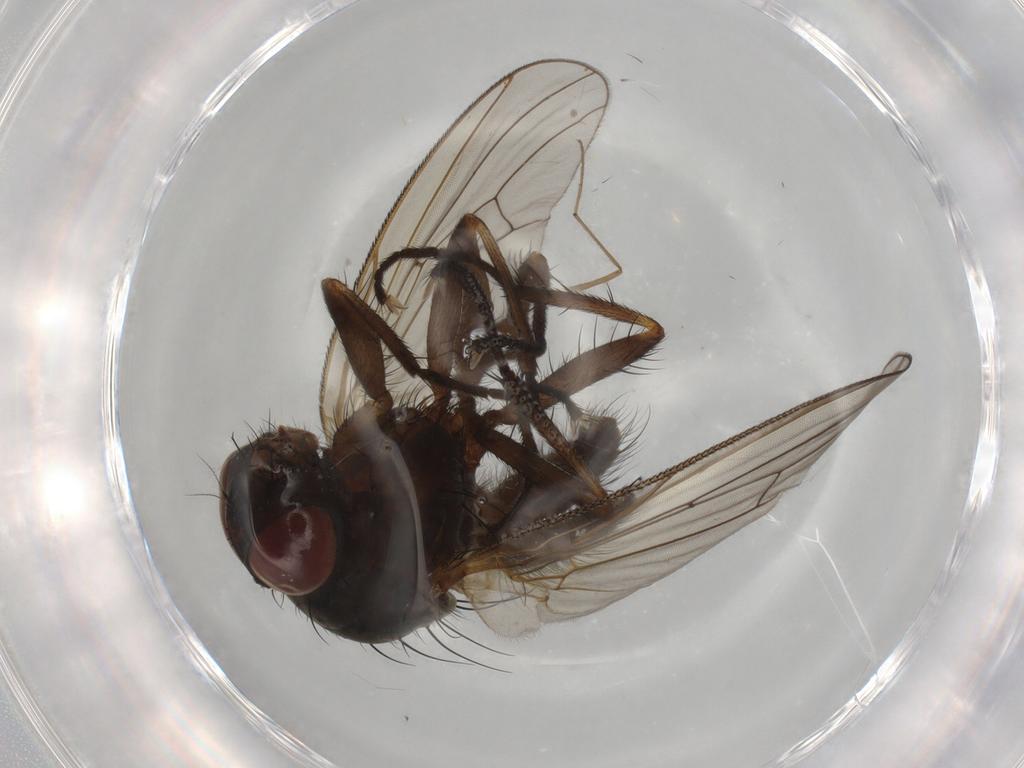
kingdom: Animalia
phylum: Arthropoda
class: Insecta
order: Diptera
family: Anthomyiidae
